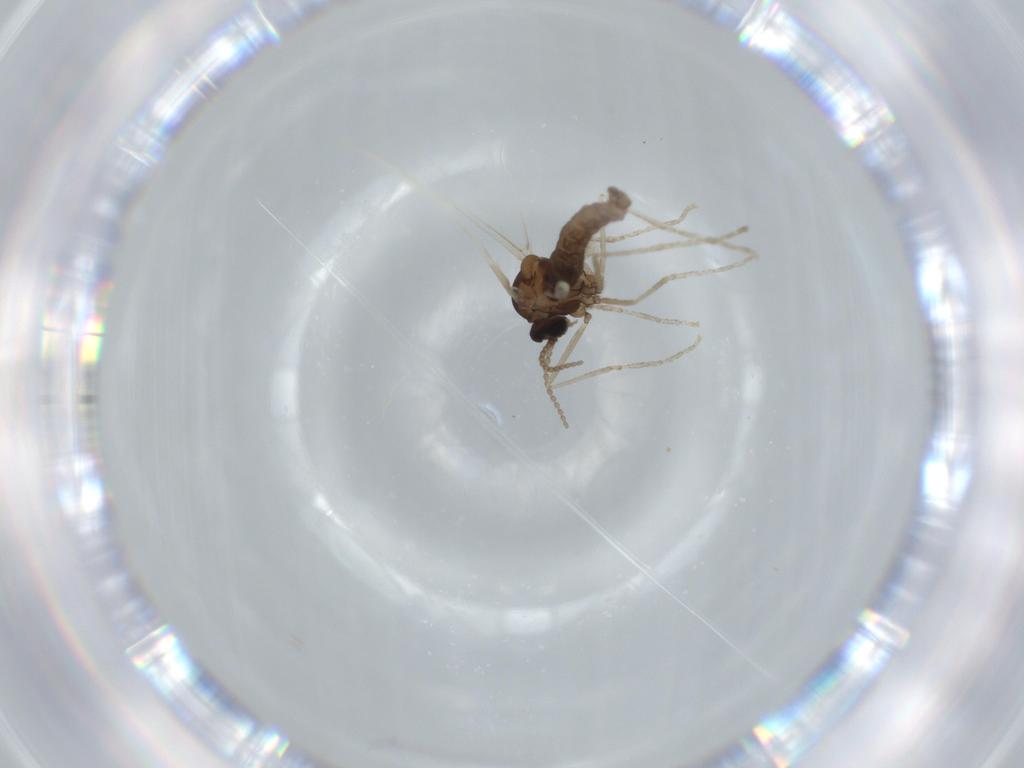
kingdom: Animalia
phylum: Arthropoda
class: Insecta
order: Diptera
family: Cecidomyiidae
